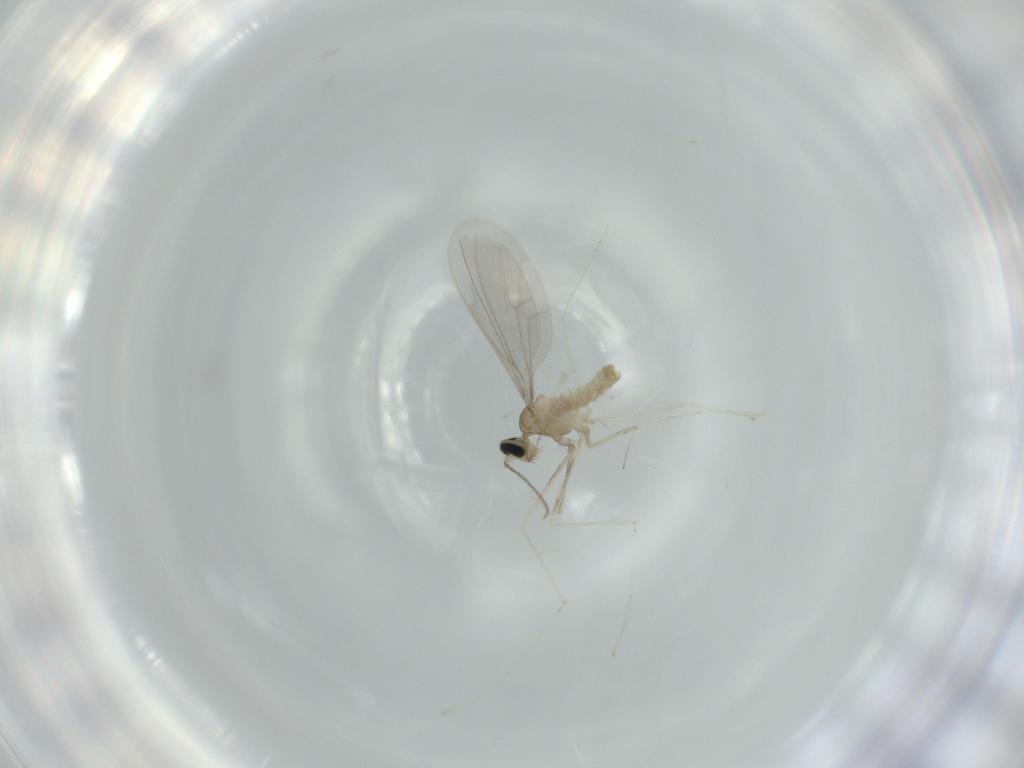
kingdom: Animalia
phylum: Arthropoda
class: Insecta
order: Diptera
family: Cecidomyiidae
